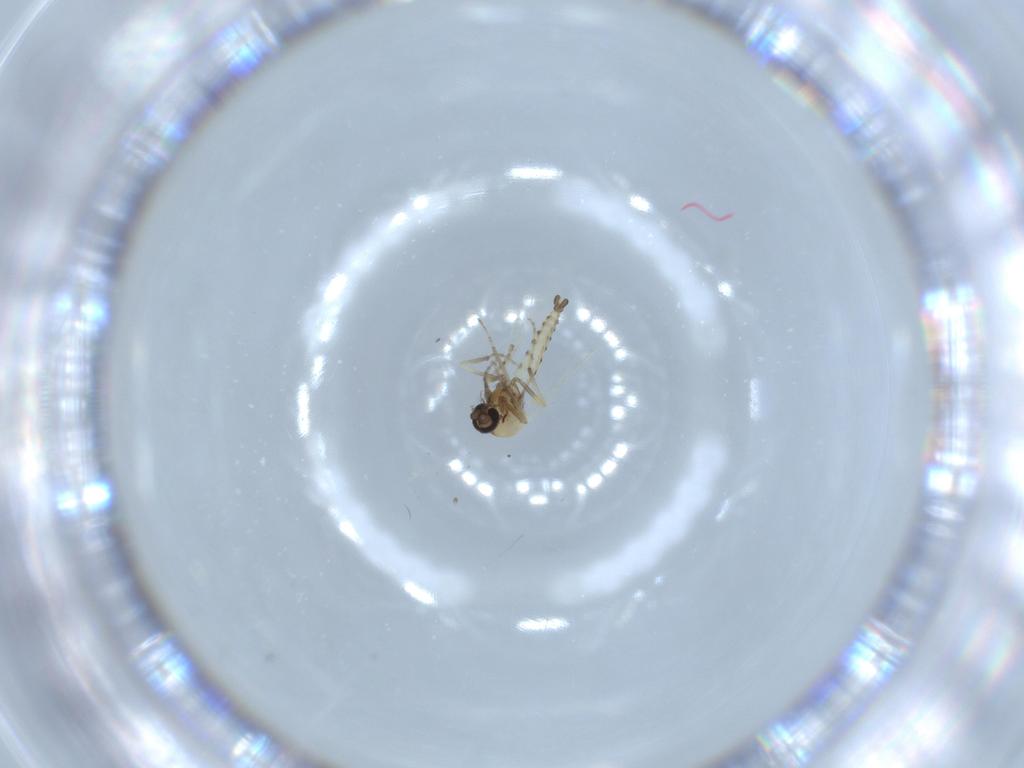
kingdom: Animalia
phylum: Arthropoda
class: Insecta
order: Diptera
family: Ceratopogonidae
